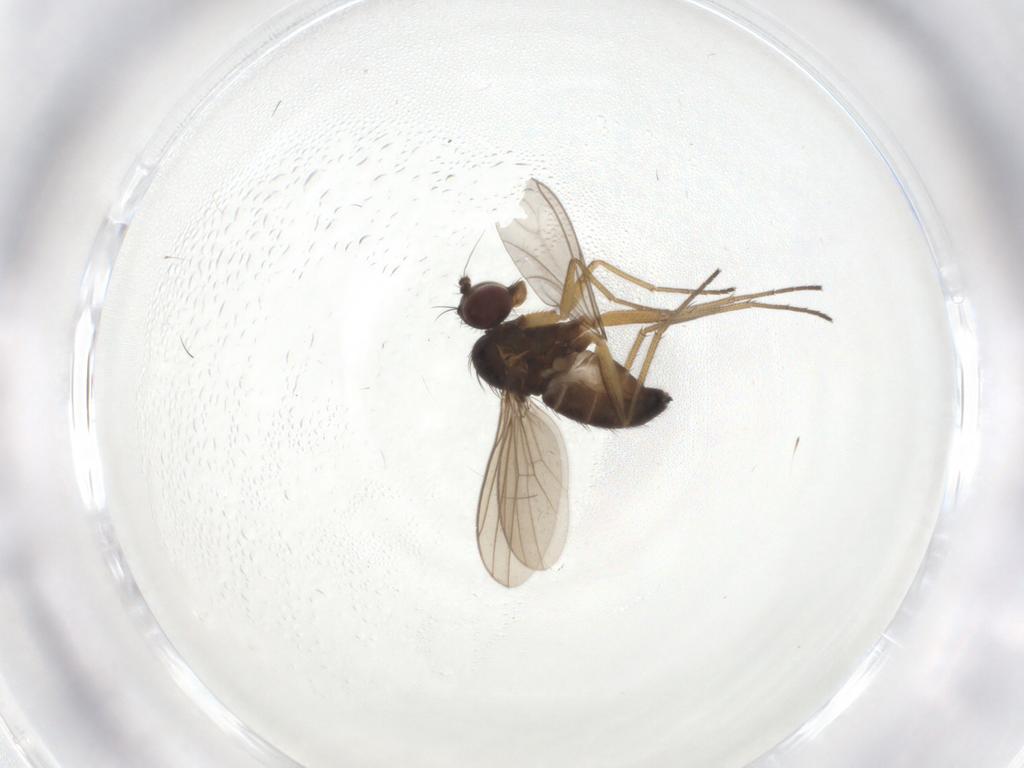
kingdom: Animalia
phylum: Arthropoda
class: Insecta
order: Diptera
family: Dolichopodidae
